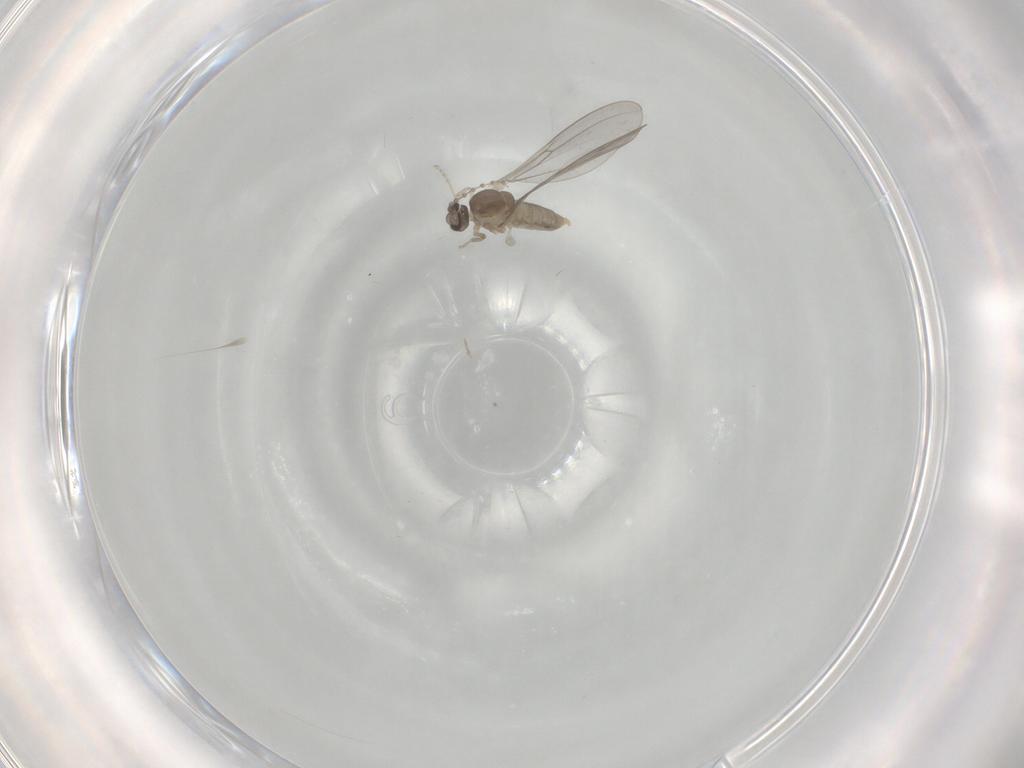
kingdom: Animalia
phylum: Arthropoda
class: Insecta
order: Diptera
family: Cecidomyiidae
